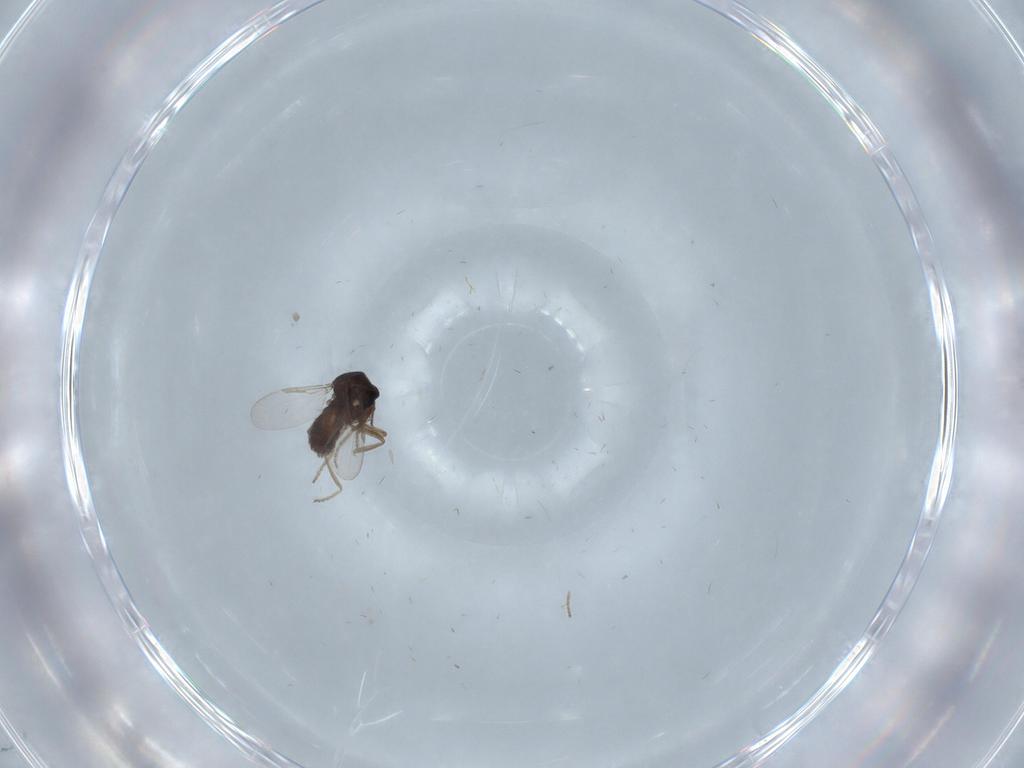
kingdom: Animalia
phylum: Arthropoda
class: Insecta
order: Diptera
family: Ceratopogonidae
